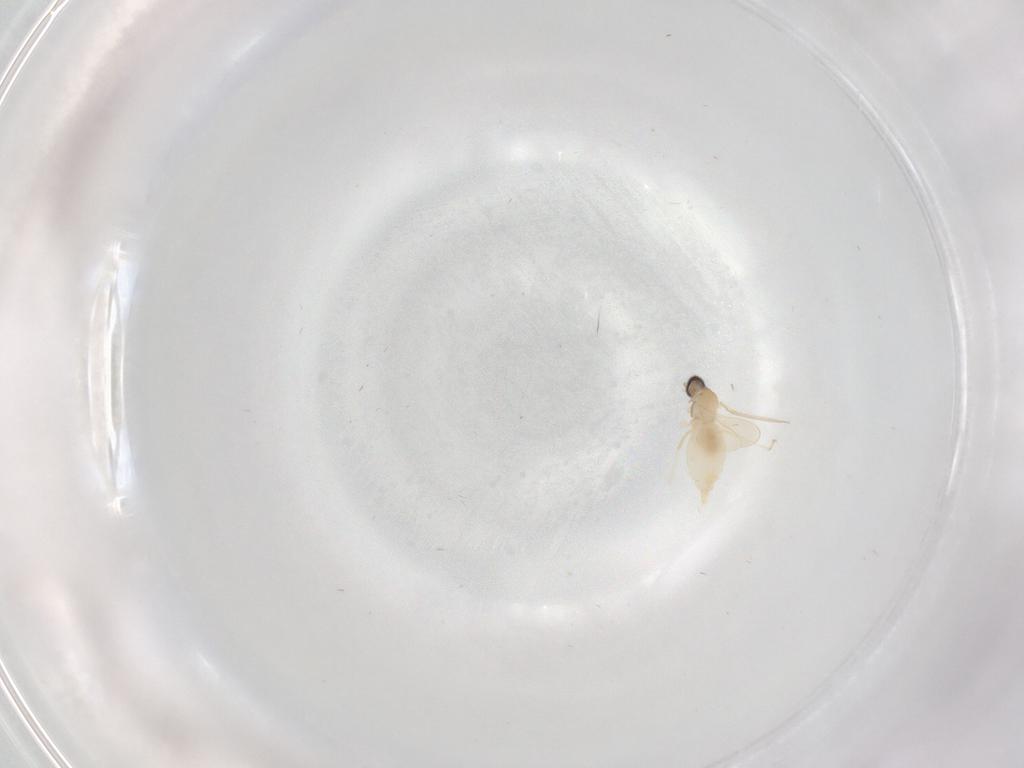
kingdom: Animalia
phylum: Arthropoda
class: Insecta
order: Diptera
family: Cecidomyiidae
